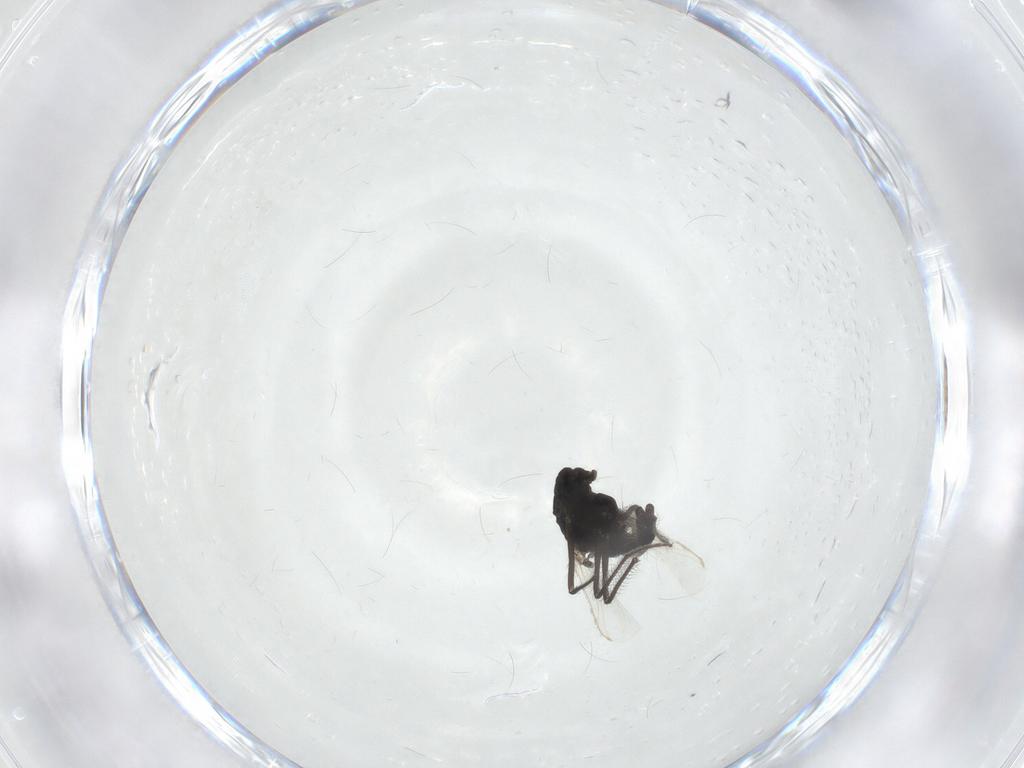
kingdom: Animalia
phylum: Arthropoda
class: Insecta
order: Diptera
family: Chironomidae
